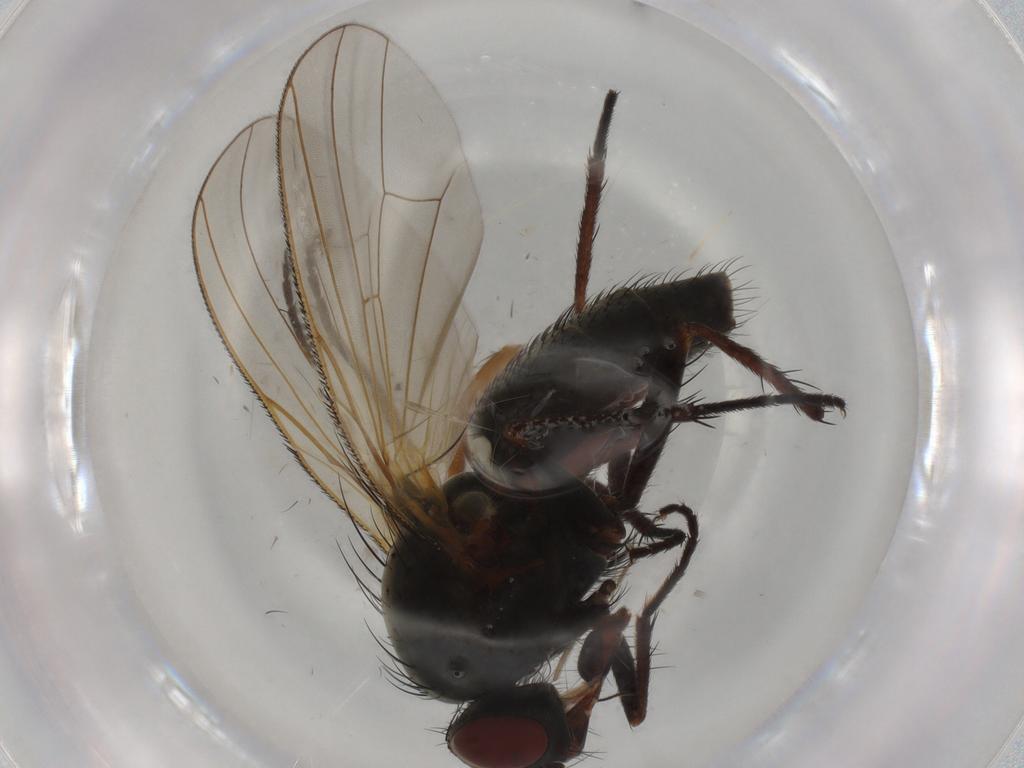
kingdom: Animalia
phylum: Arthropoda
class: Insecta
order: Diptera
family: Anthomyiidae
